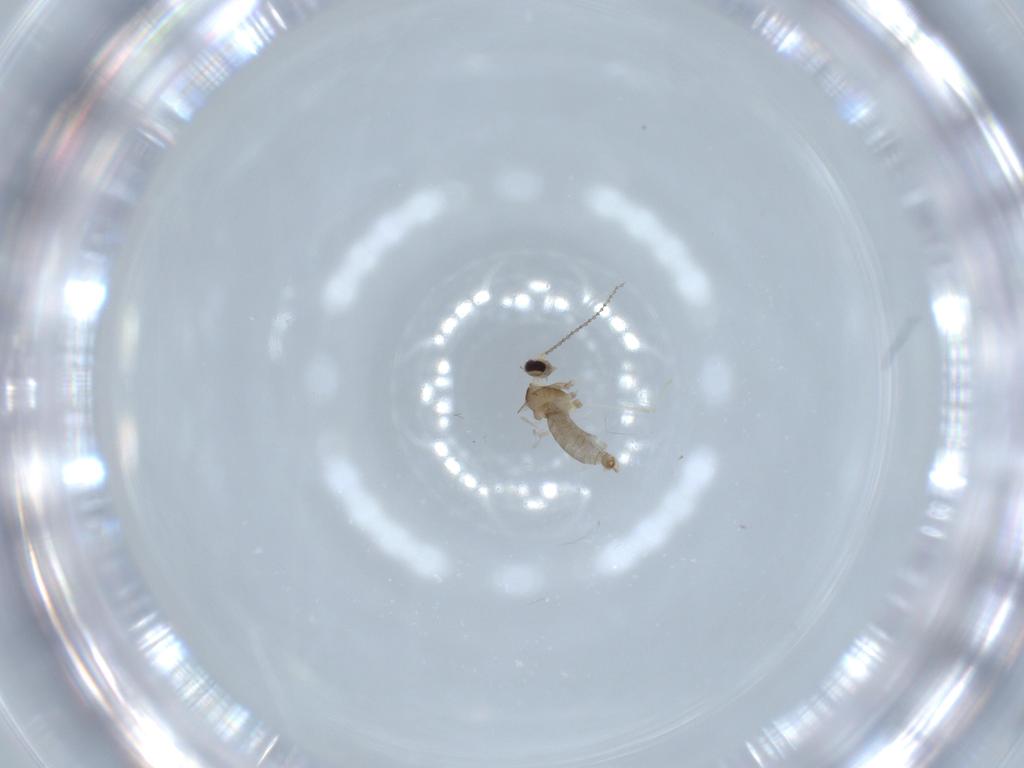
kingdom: Animalia
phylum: Arthropoda
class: Insecta
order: Diptera
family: Cecidomyiidae
